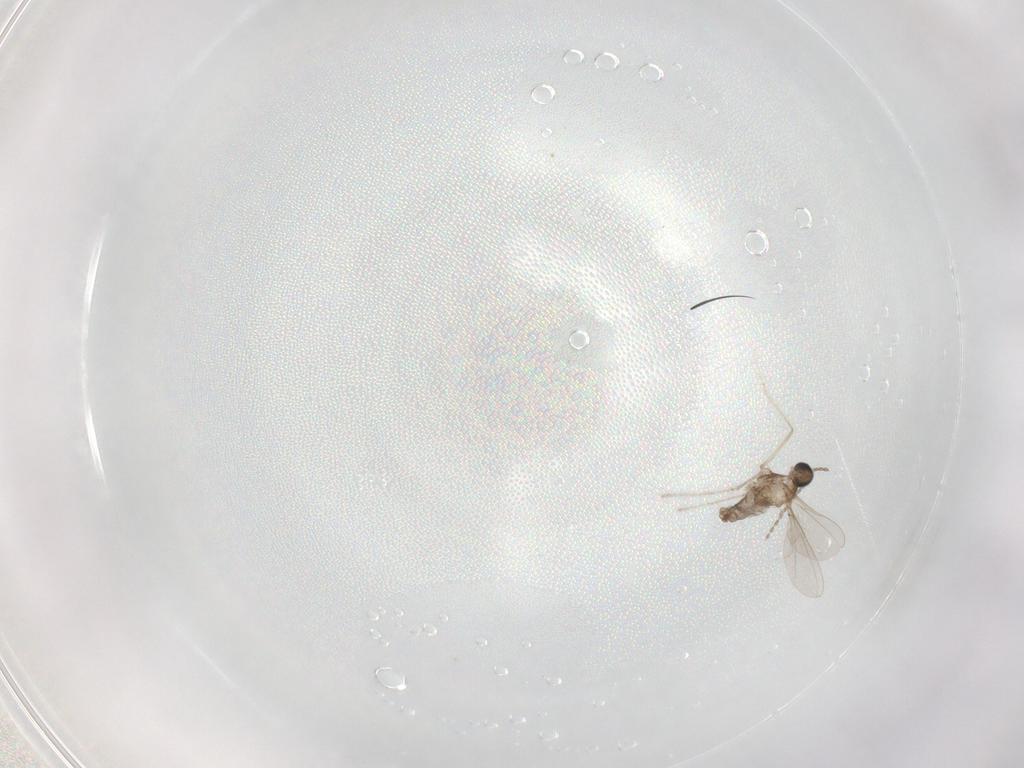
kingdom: Animalia
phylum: Arthropoda
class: Insecta
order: Diptera
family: Cecidomyiidae
